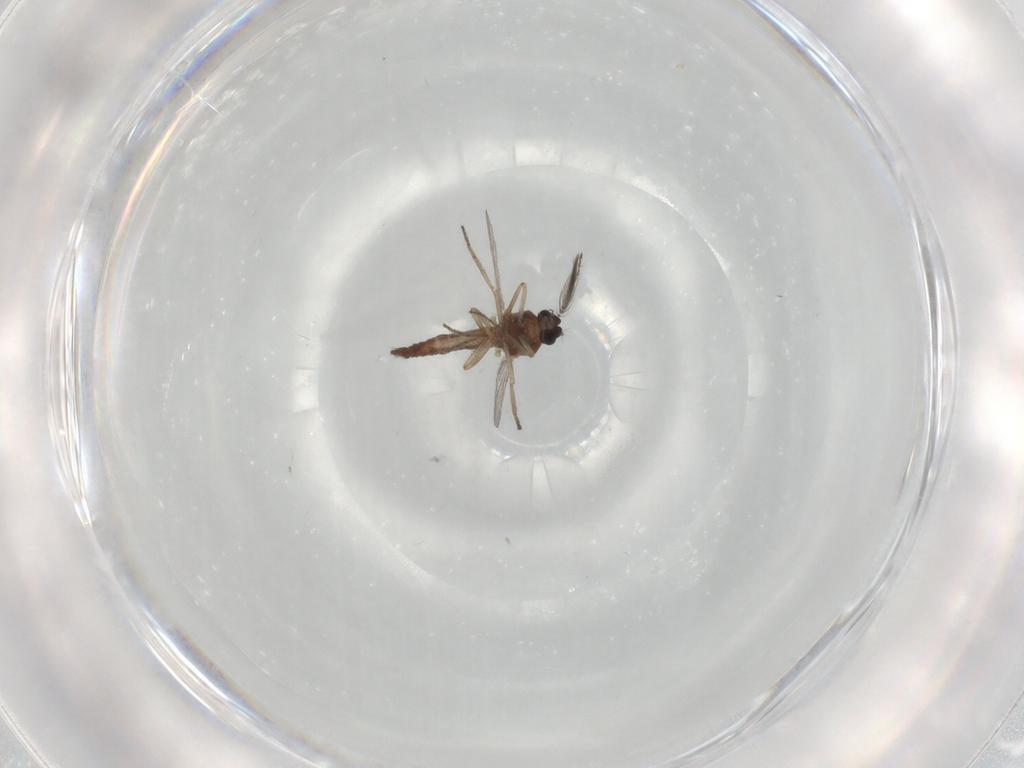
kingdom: Animalia
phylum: Arthropoda
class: Insecta
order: Diptera
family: Ceratopogonidae
